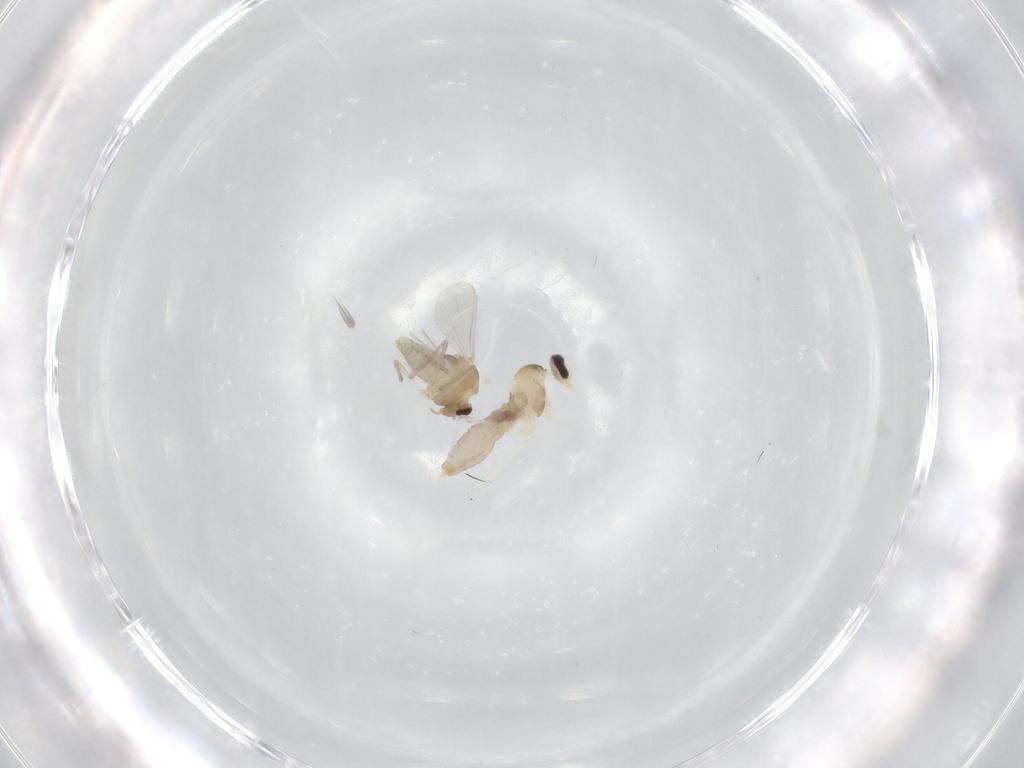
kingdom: Animalia
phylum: Arthropoda
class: Insecta
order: Diptera
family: Cecidomyiidae
